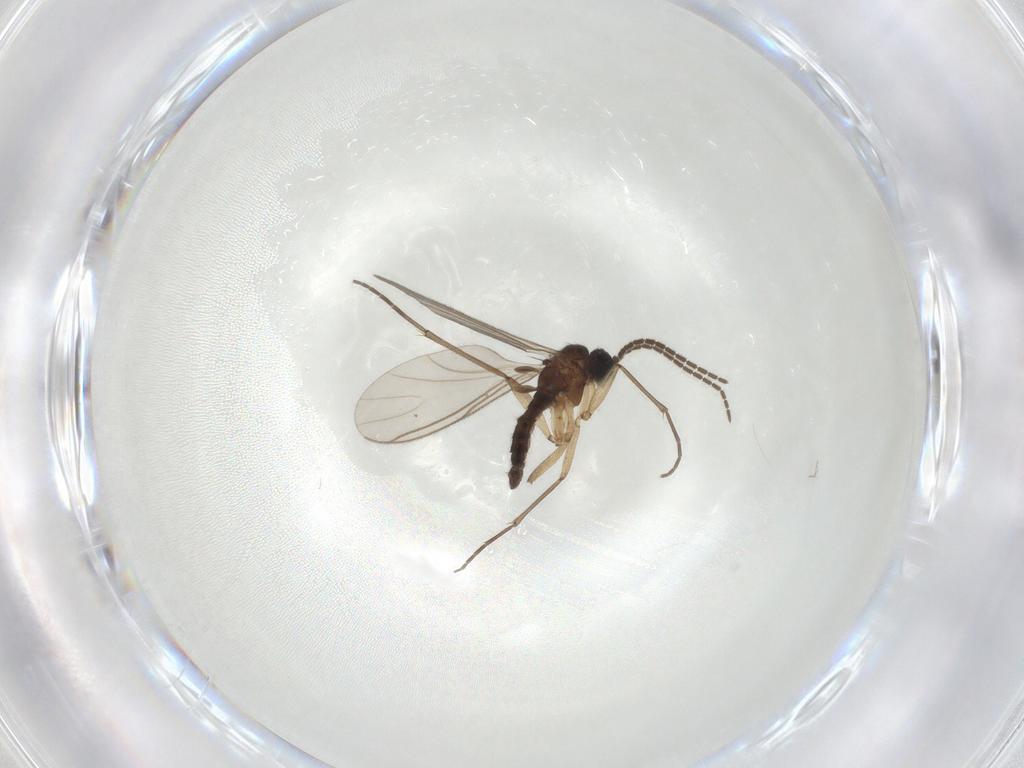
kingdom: Animalia
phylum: Arthropoda
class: Insecta
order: Diptera
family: Sciaridae
